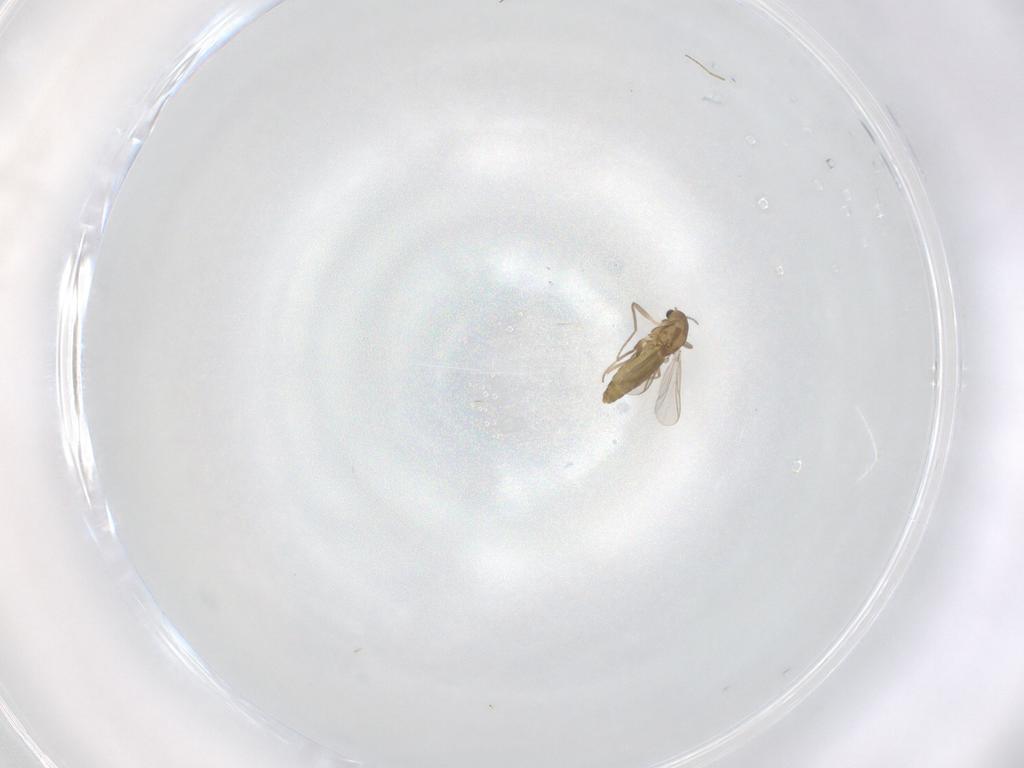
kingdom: Animalia
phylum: Arthropoda
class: Insecta
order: Diptera
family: Chironomidae
